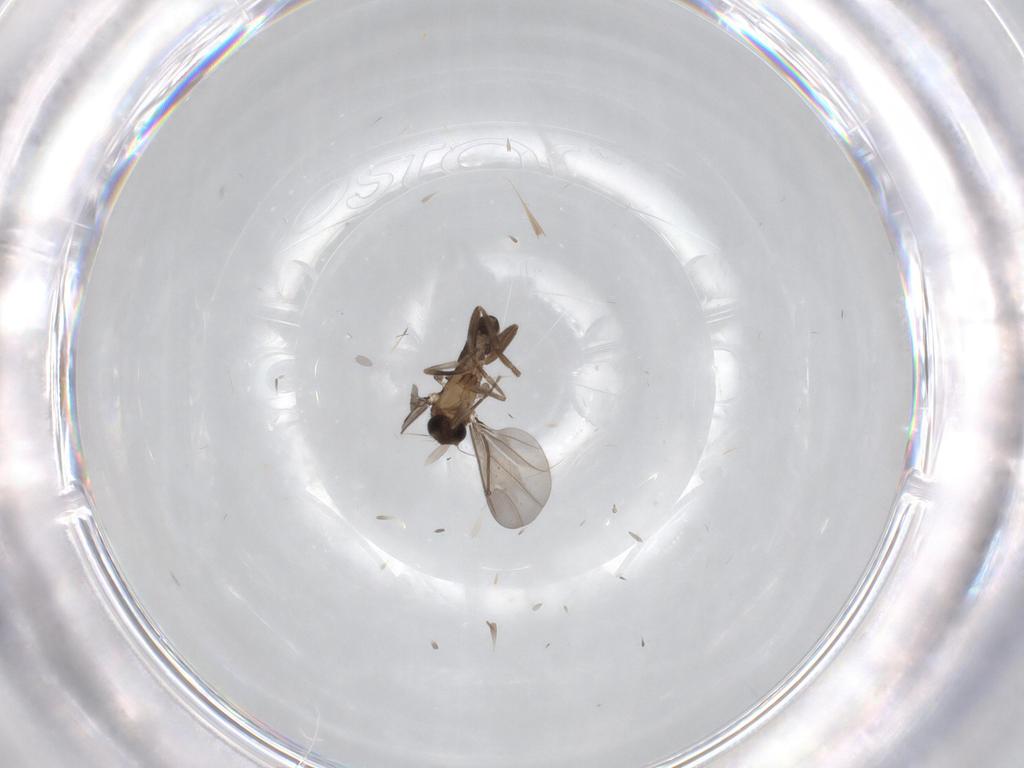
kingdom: Animalia
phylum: Arthropoda
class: Insecta
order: Diptera
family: Phoridae
